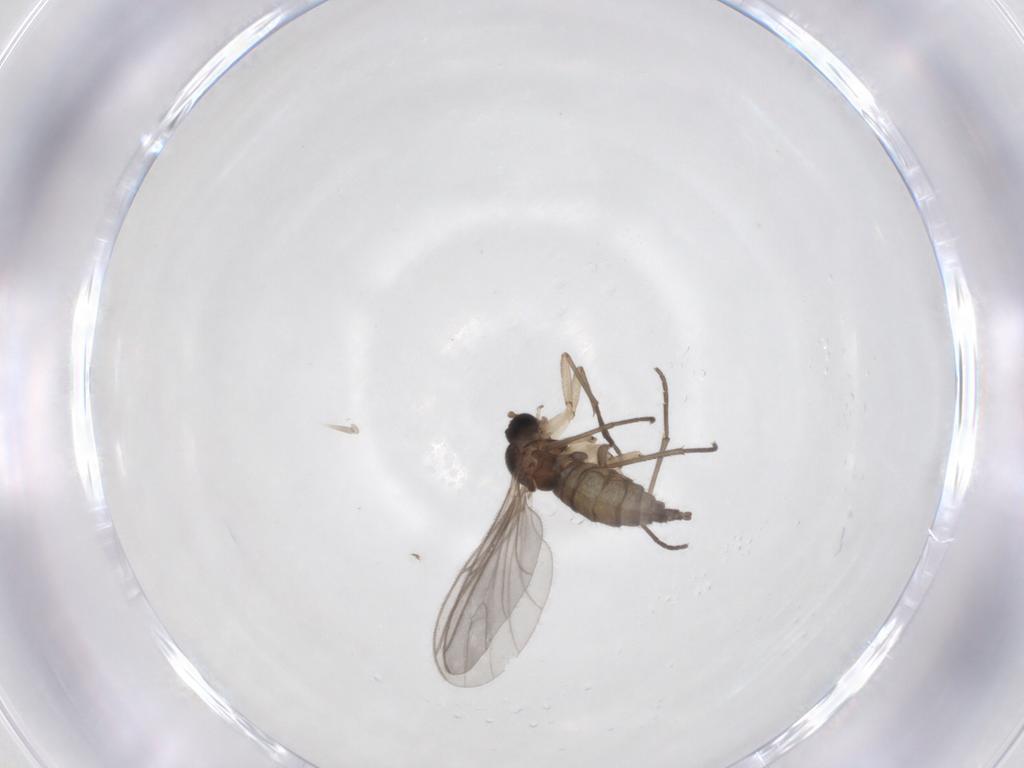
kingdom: Animalia
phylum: Arthropoda
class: Insecta
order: Diptera
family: Sciaridae
